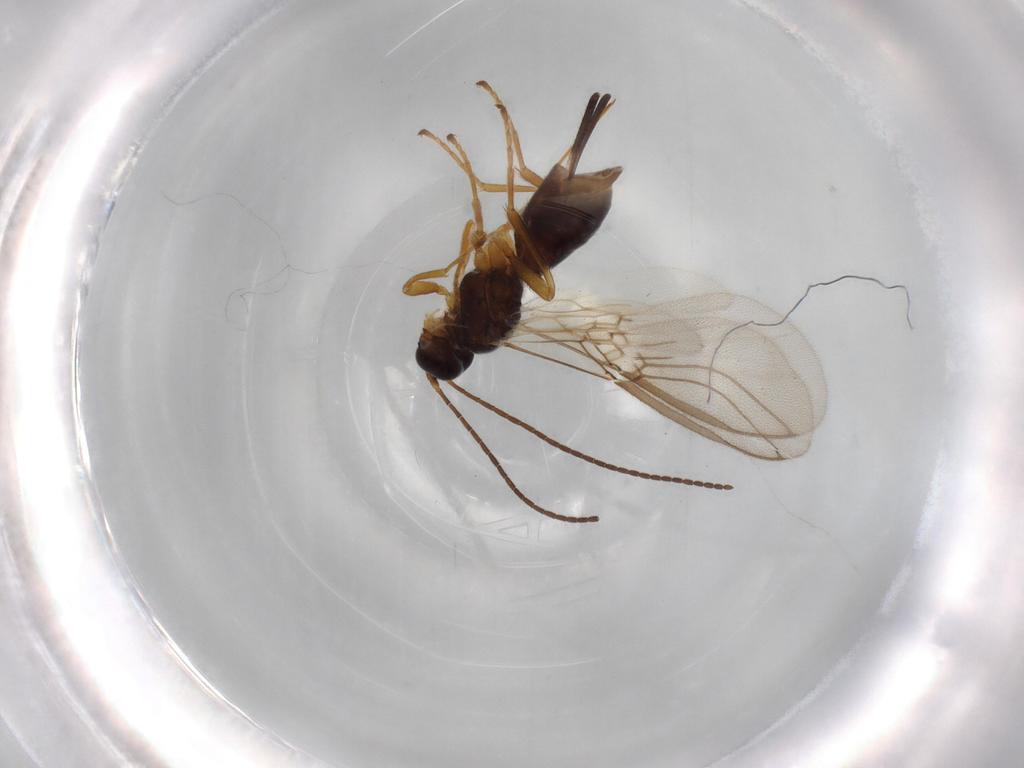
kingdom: Animalia
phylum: Arthropoda
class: Insecta
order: Hymenoptera
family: Braconidae
